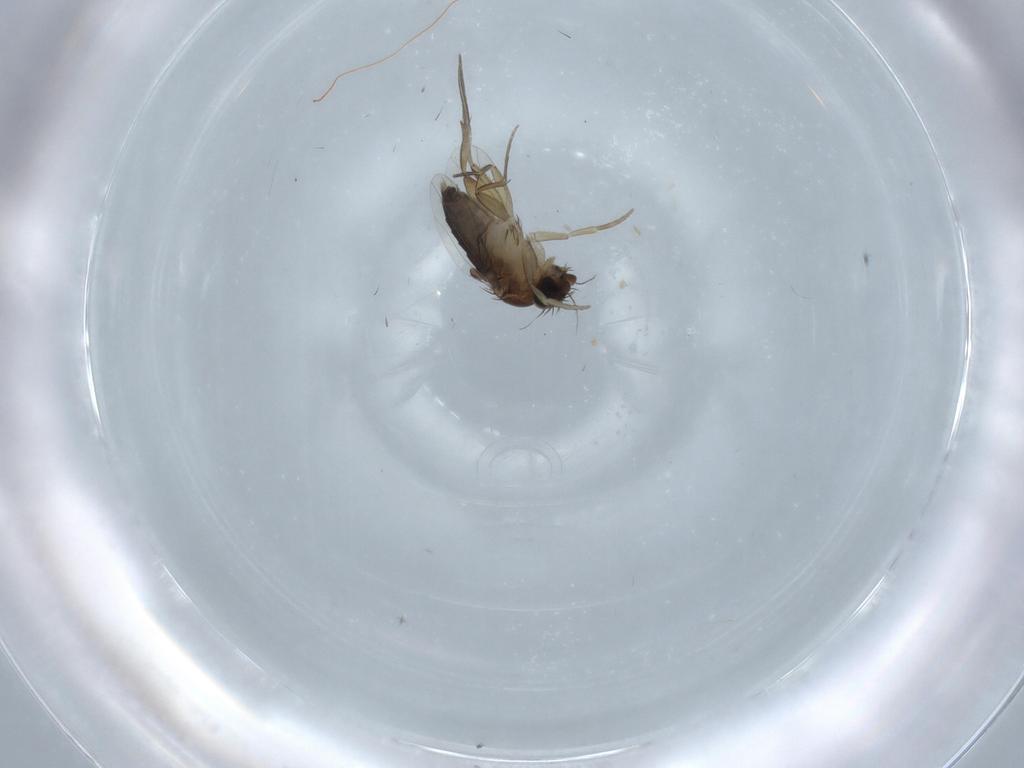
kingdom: Animalia
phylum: Arthropoda
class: Insecta
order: Diptera
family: Phoridae
